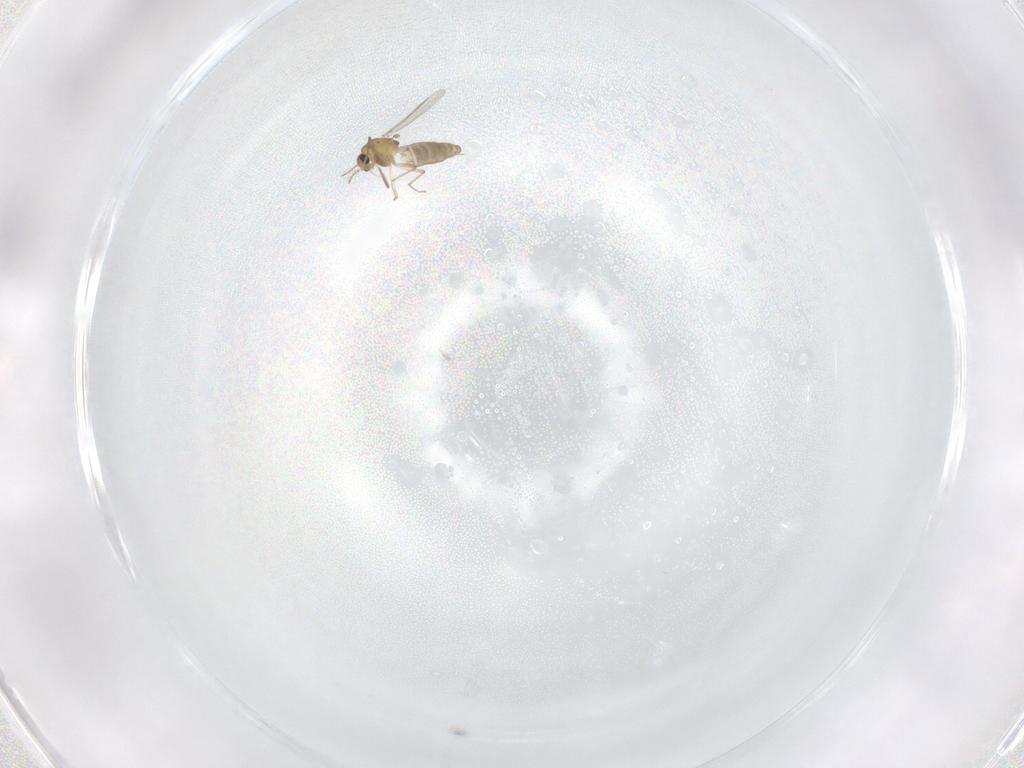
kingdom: Animalia
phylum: Arthropoda
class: Insecta
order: Diptera
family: Chironomidae
